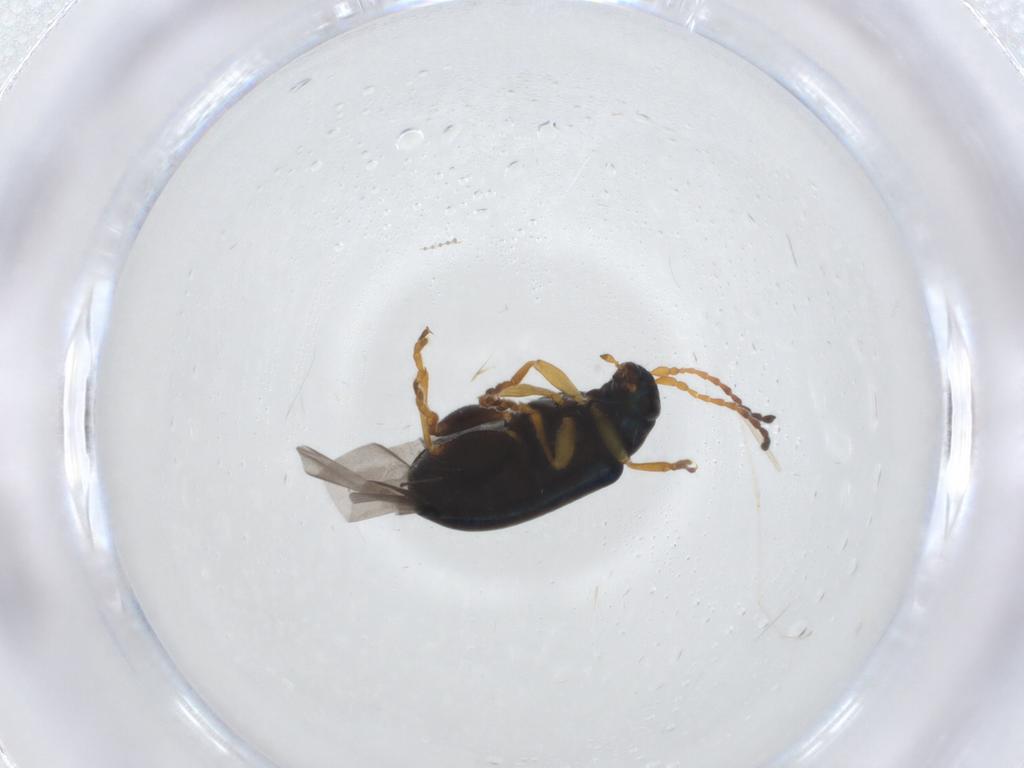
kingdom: Animalia
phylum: Arthropoda
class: Insecta
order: Coleoptera
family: Chrysomelidae
